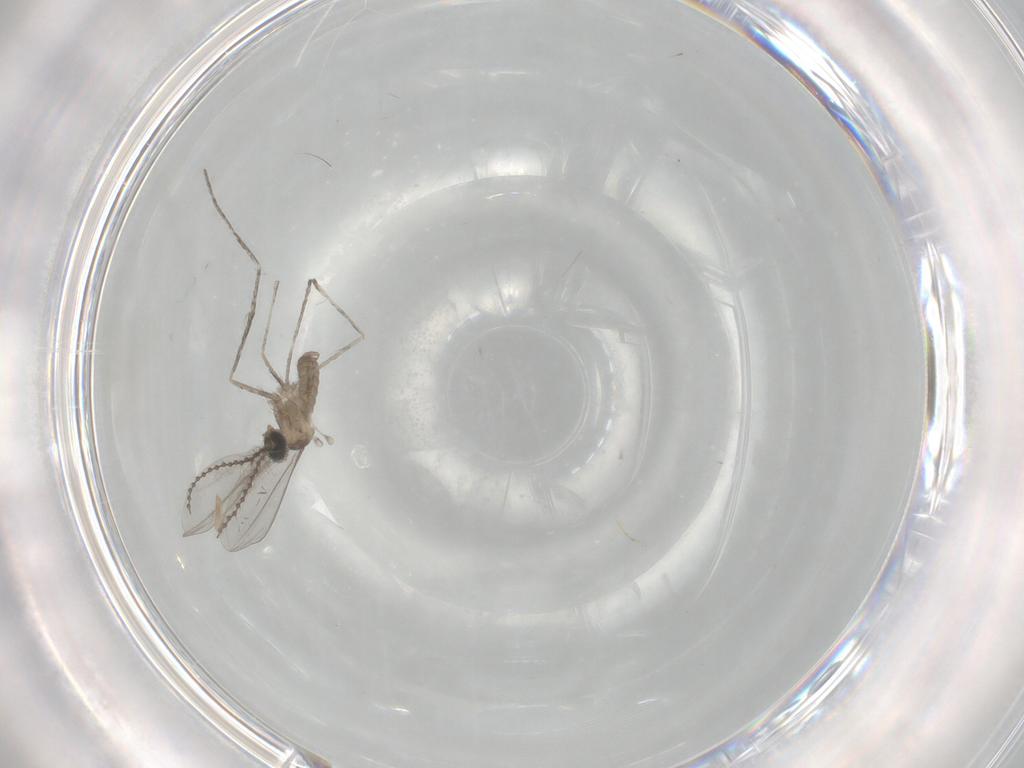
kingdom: Animalia
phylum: Arthropoda
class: Insecta
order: Diptera
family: Cecidomyiidae
